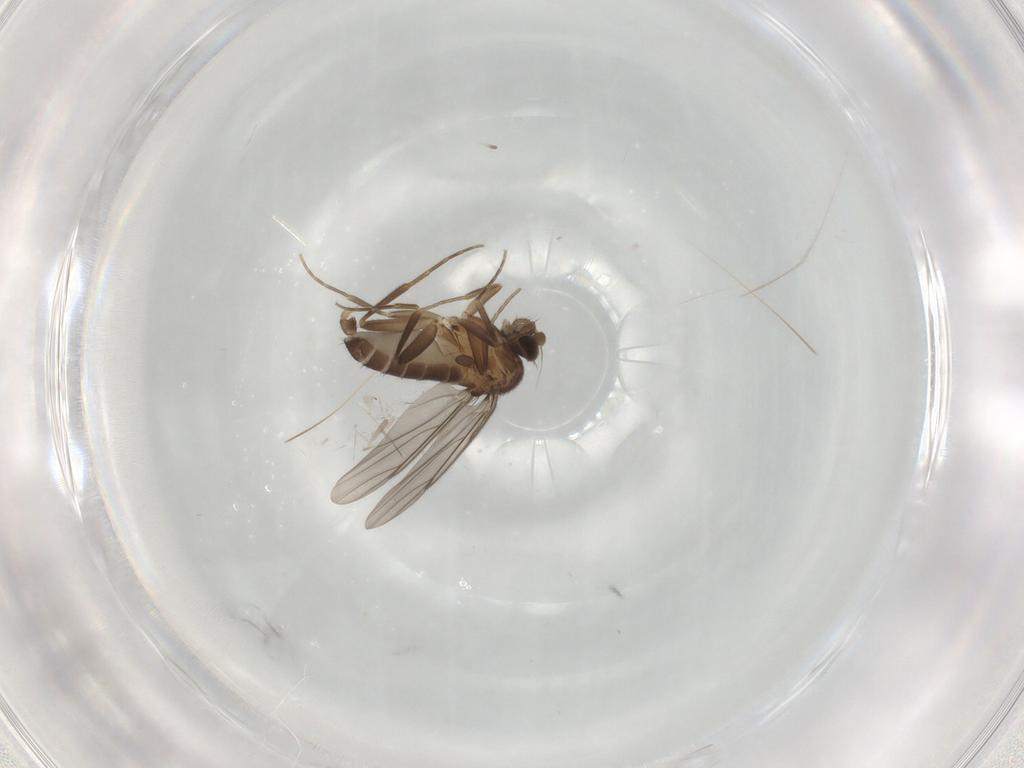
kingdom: Animalia
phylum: Arthropoda
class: Insecta
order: Diptera
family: Phoridae
